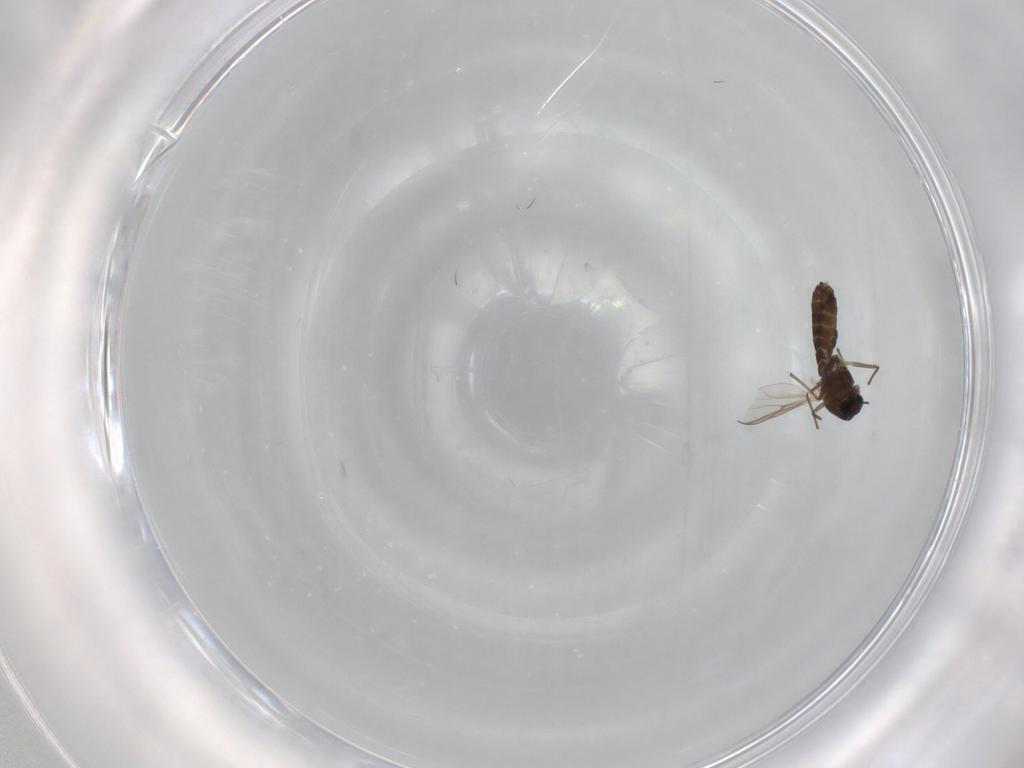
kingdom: Animalia
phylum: Arthropoda
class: Insecta
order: Diptera
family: Chironomidae
